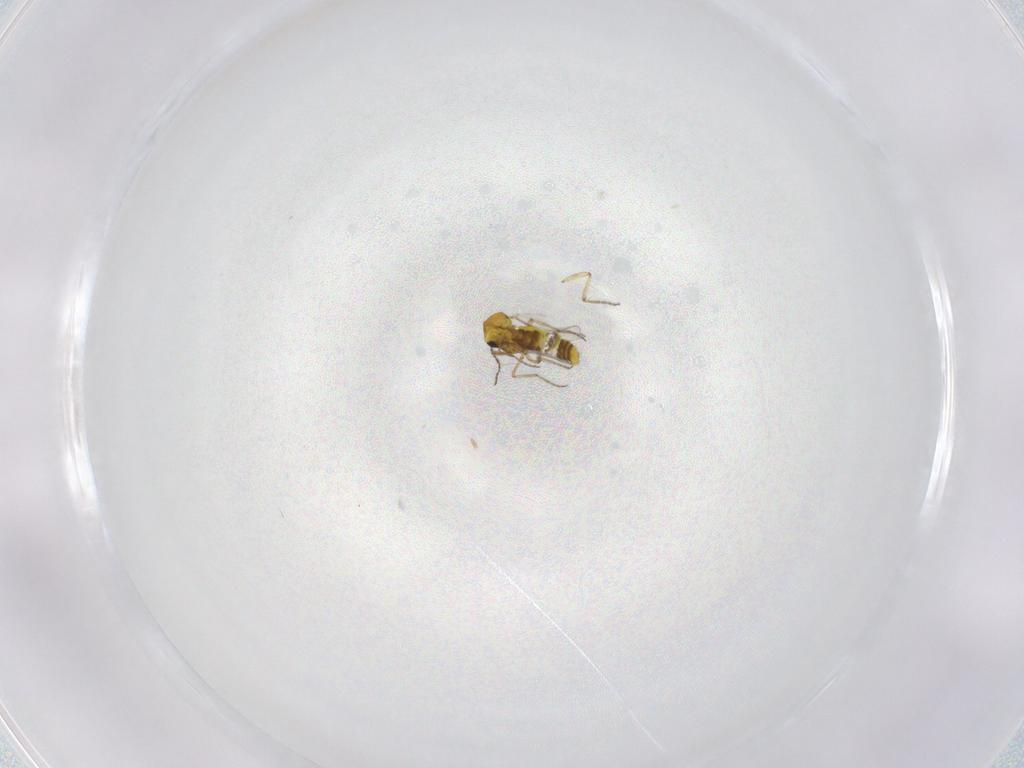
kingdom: Animalia
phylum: Arthropoda
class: Insecta
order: Diptera
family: Ceratopogonidae
